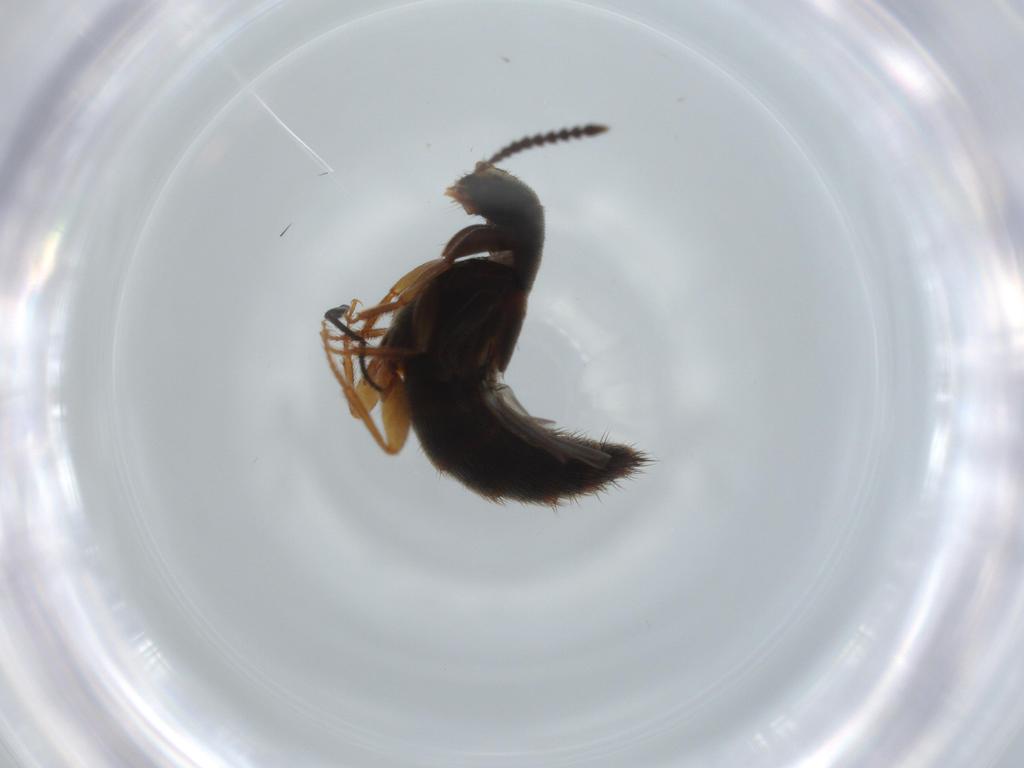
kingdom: Animalia
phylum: Arthropoda
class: Insecta
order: Coleoptera
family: Staphylinidae
